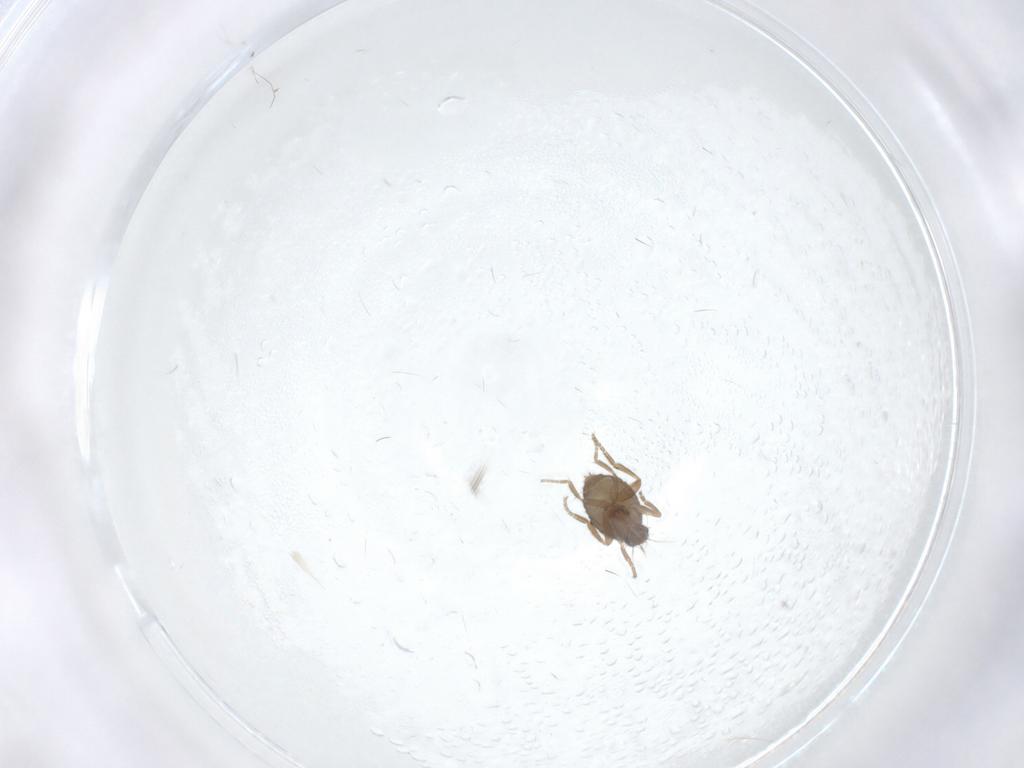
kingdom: Animalia
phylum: Arthropoda
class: Insecta
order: Diptera
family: Phoridae
